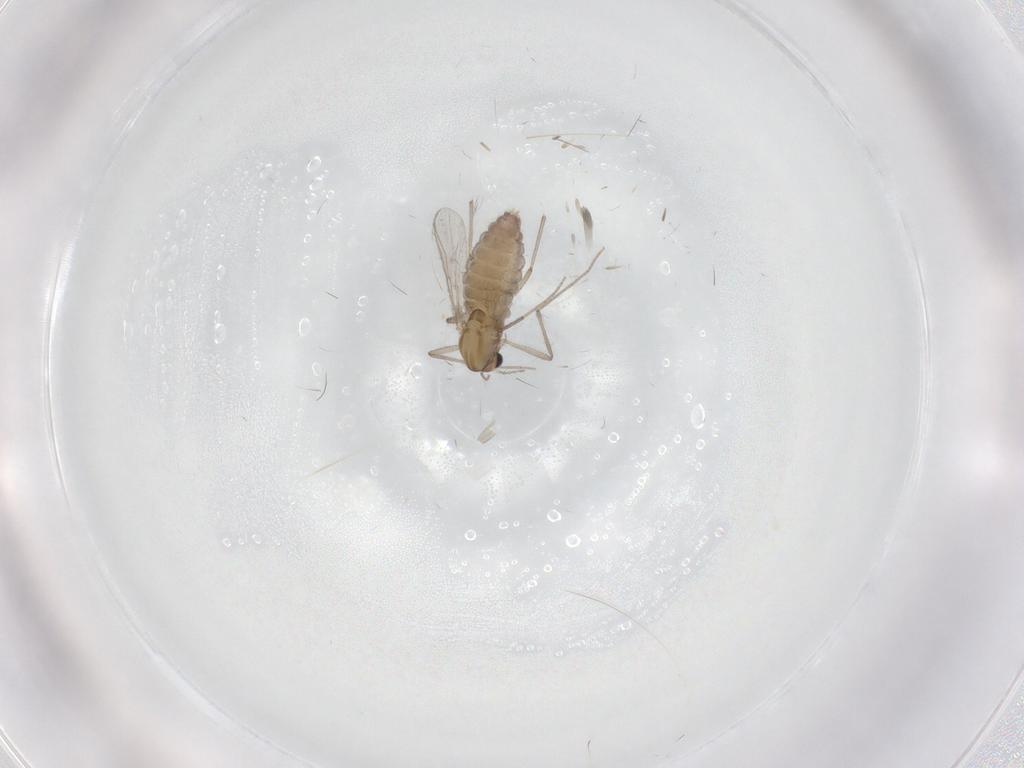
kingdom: Animalia
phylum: Arthropoda
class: Insecta
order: Diptera
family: Chironomidae
